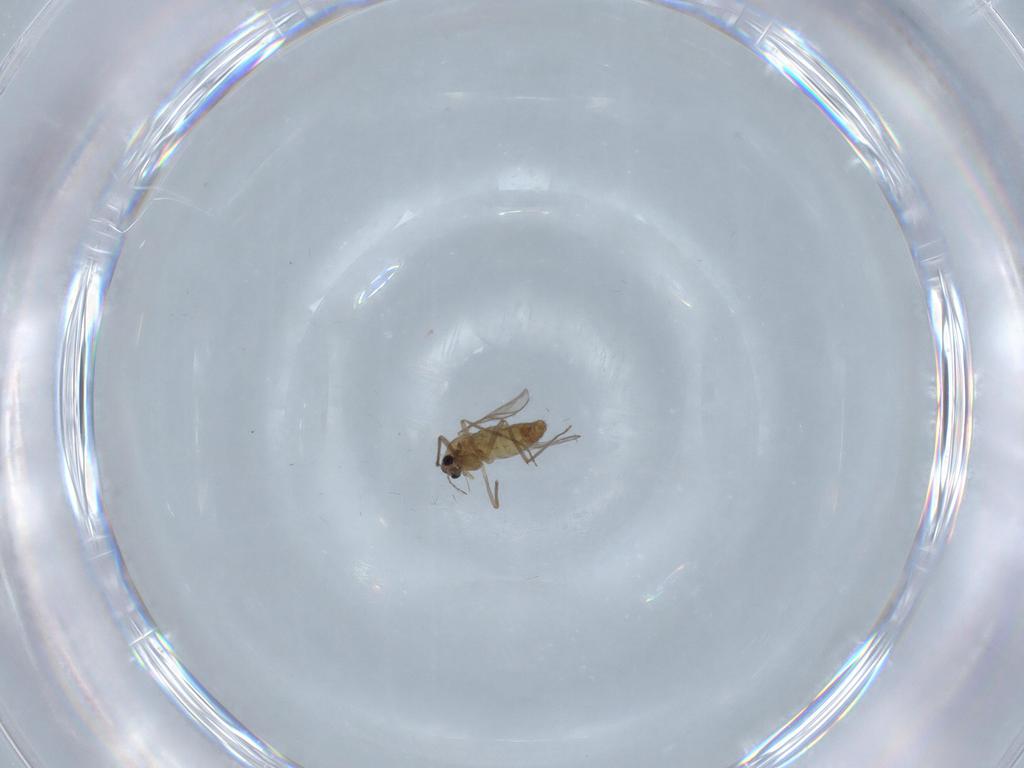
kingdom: Animalia
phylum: Arthropoda
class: Insecta
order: Diptera
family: Chironomidae
